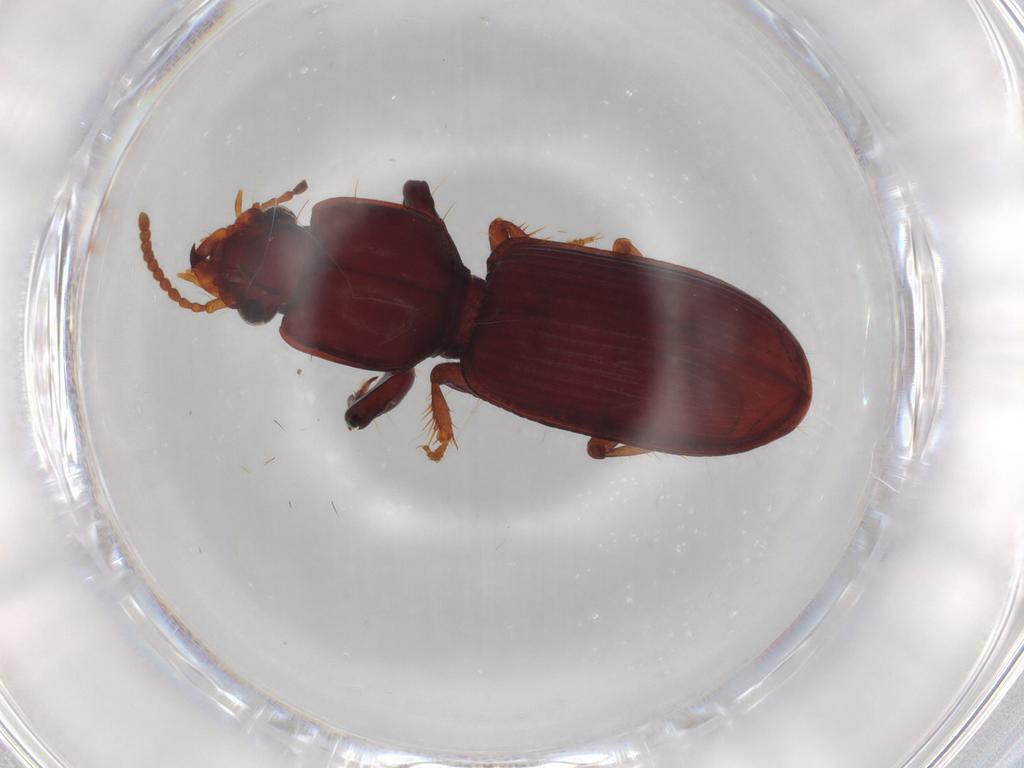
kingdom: Animalia
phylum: Arthropoda
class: Insecta
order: Coleoptera
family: Carabidae
